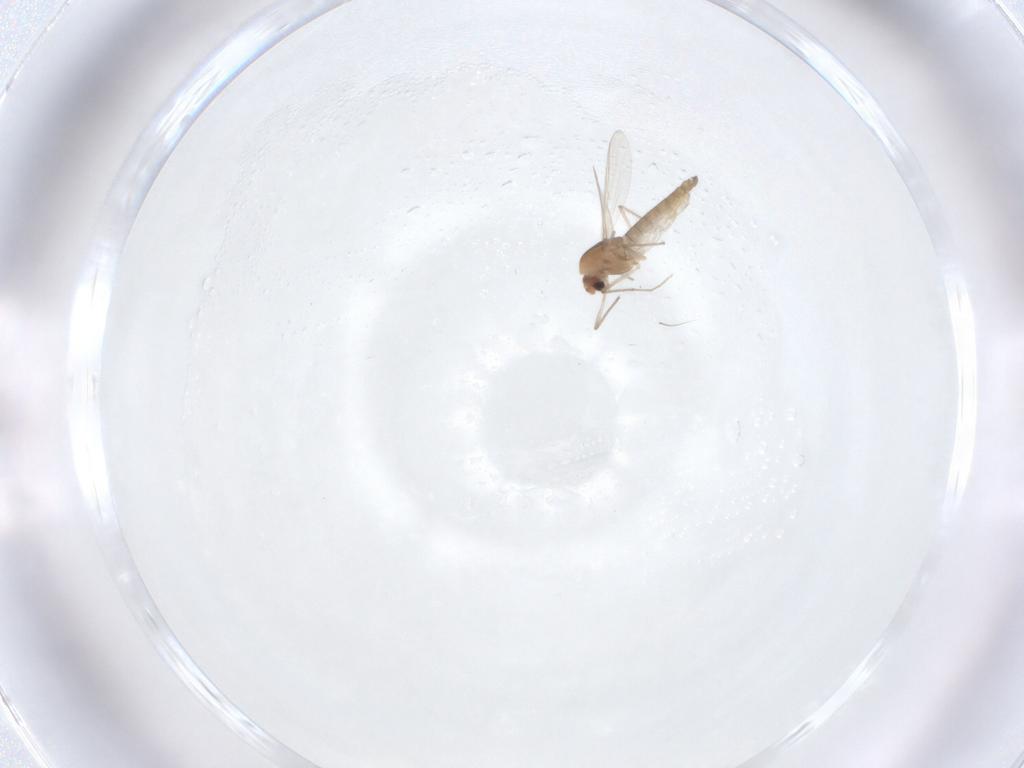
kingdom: Animalia
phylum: Arthropoda
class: Insecta
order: Diptera
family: Chironomidae
